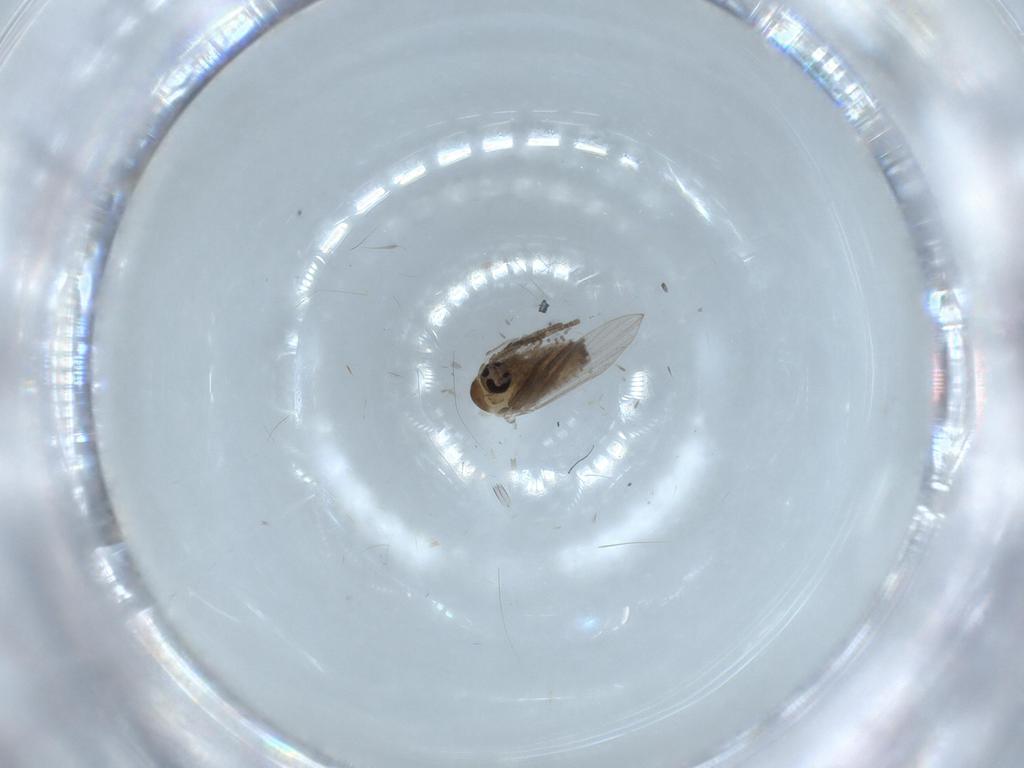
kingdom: Animalia
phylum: Arthropoda
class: Insecta
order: Diptera
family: Psychodidae
